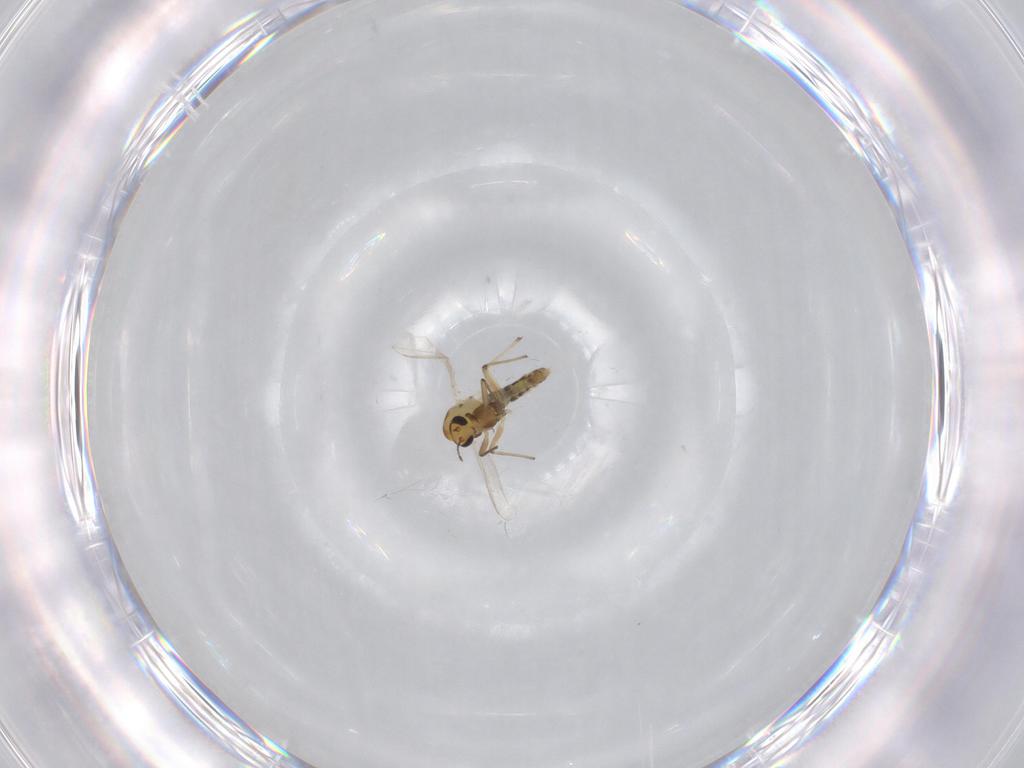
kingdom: Animalia
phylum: Arthropoda
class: Insecta
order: Diptera
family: Chironomidae
